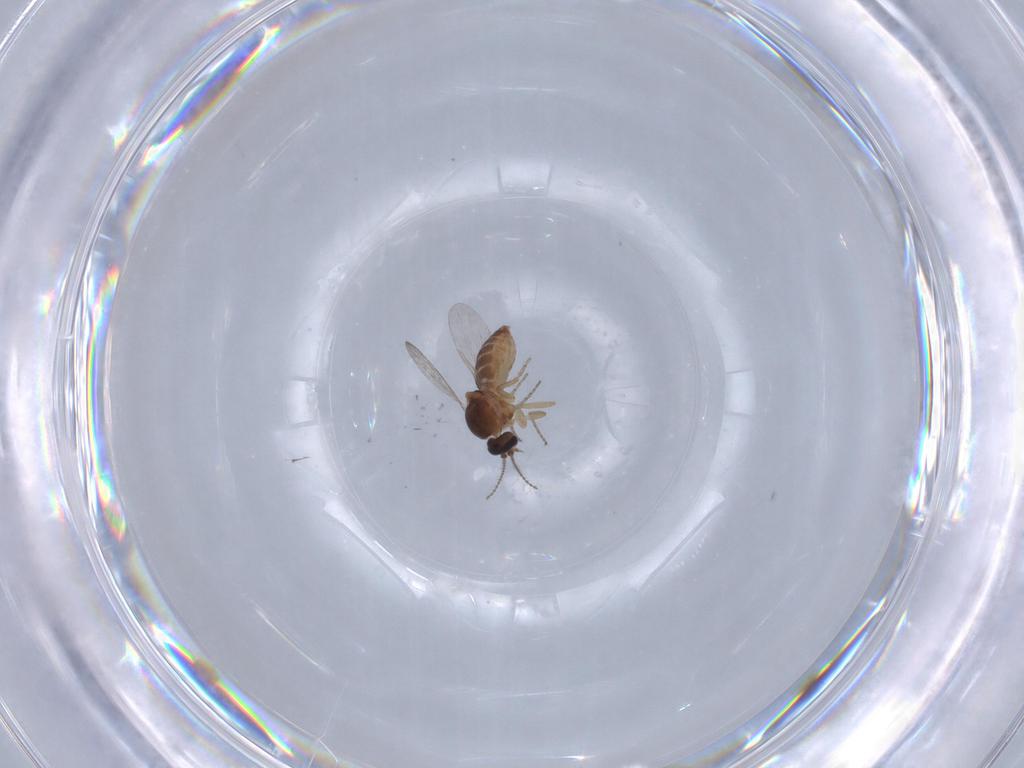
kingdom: Animalia
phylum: Arthropoda
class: Insecta
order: Diptera
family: Ceratopogonidae
